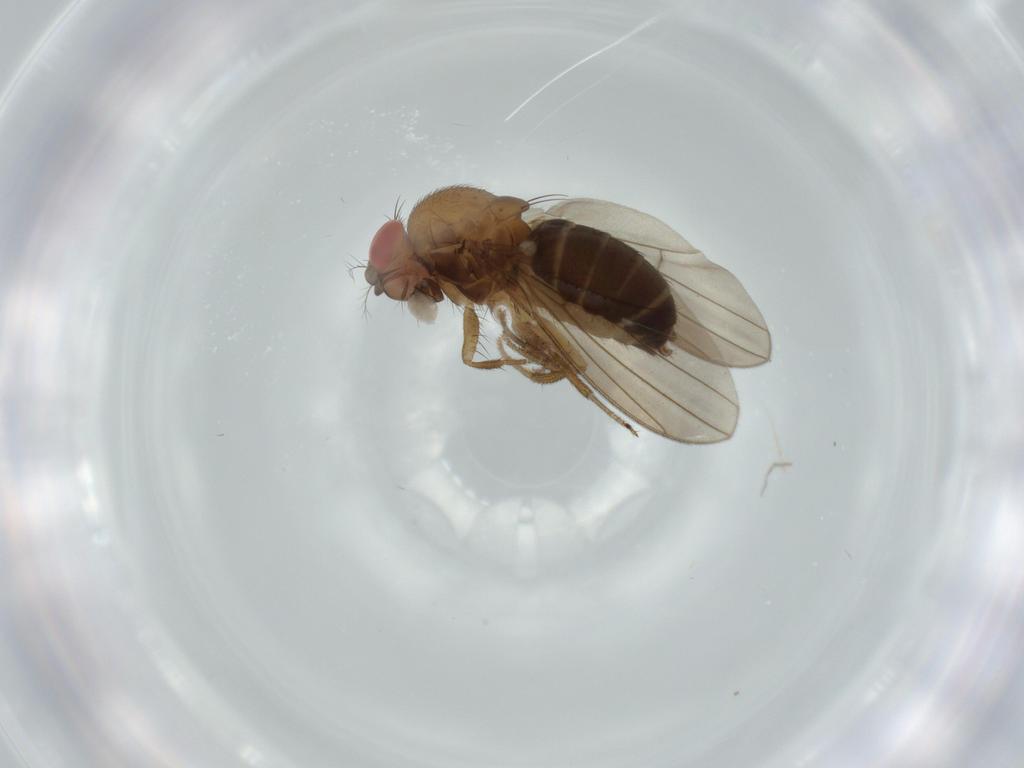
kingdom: Animalia
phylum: Arthropoda
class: Insecta
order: Diptera
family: Drosophilidae
